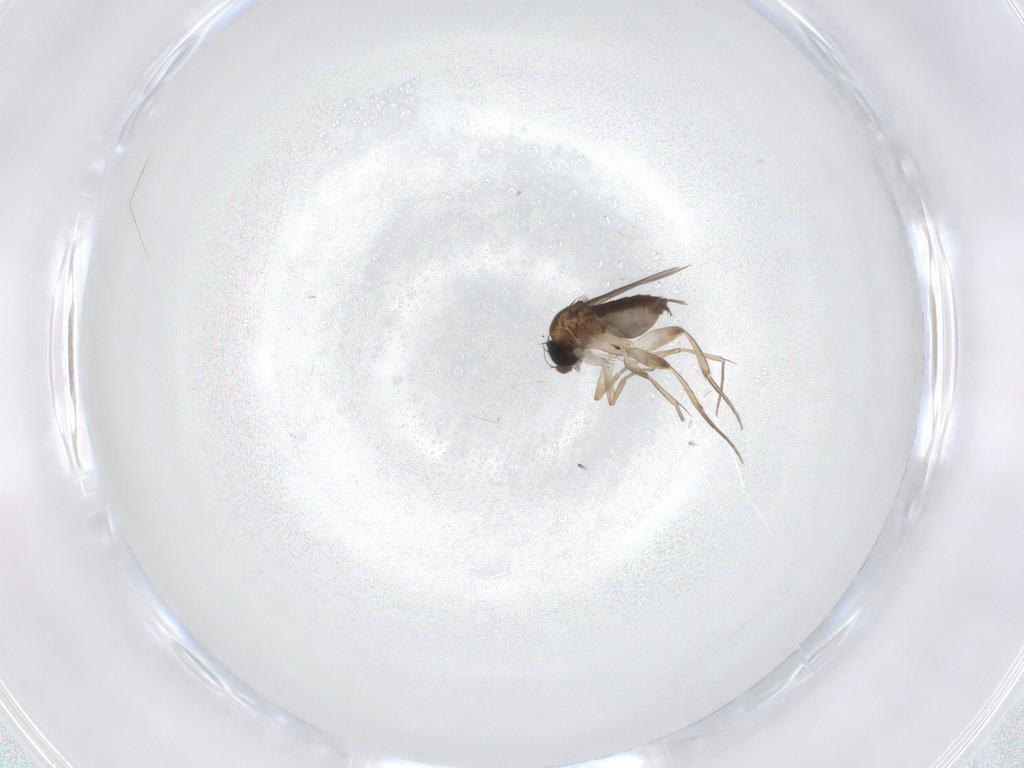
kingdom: Animalia
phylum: Arthropoda
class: Insecta
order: Diptera
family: Phoridae
